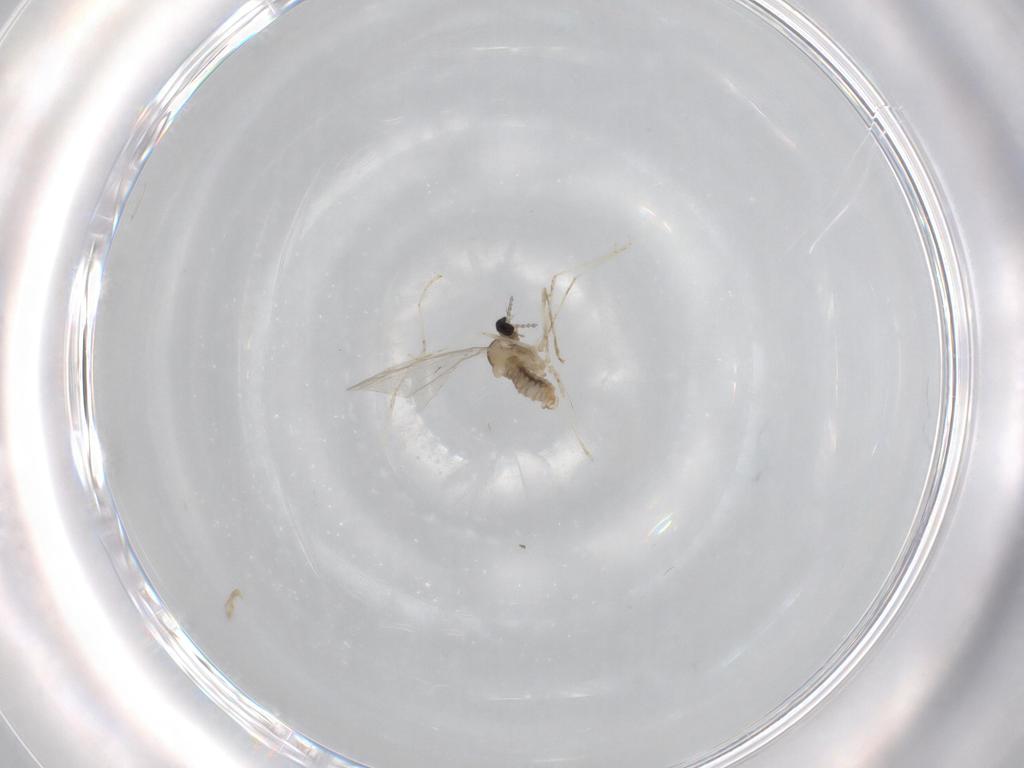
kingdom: Animalia
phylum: Arthropoda
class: Insecta
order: Diptera
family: Cecidomyiidae
